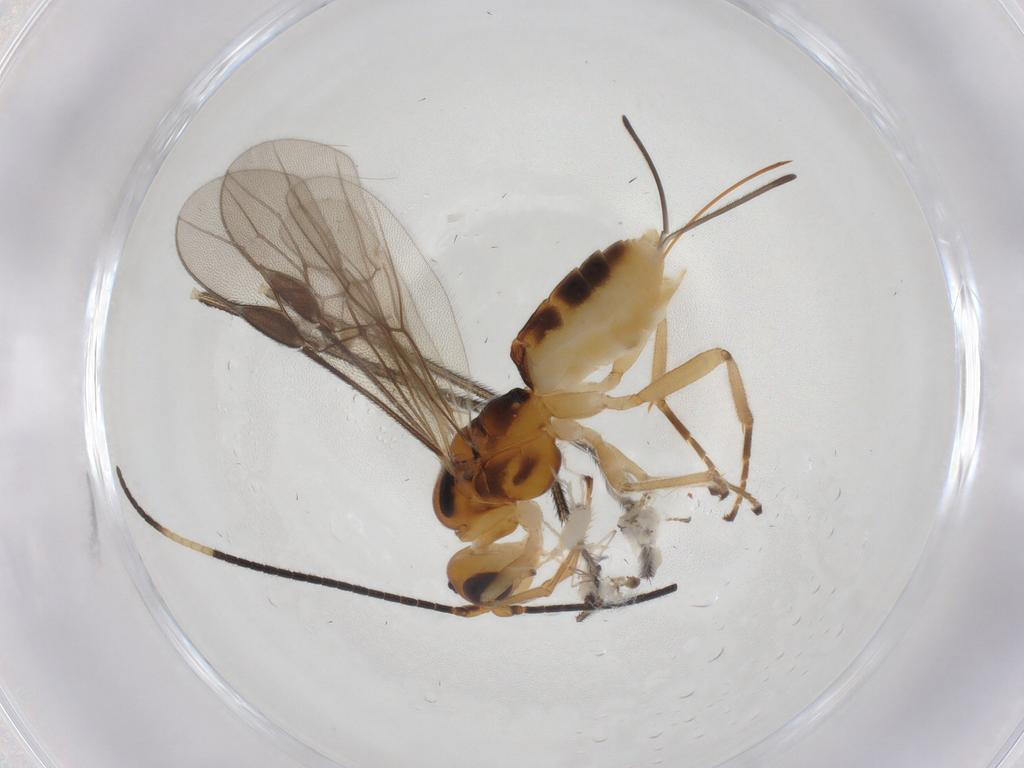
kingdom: Animalia
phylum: Arthropoda
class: Insecta
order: Hymenoptera
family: Braconidae
